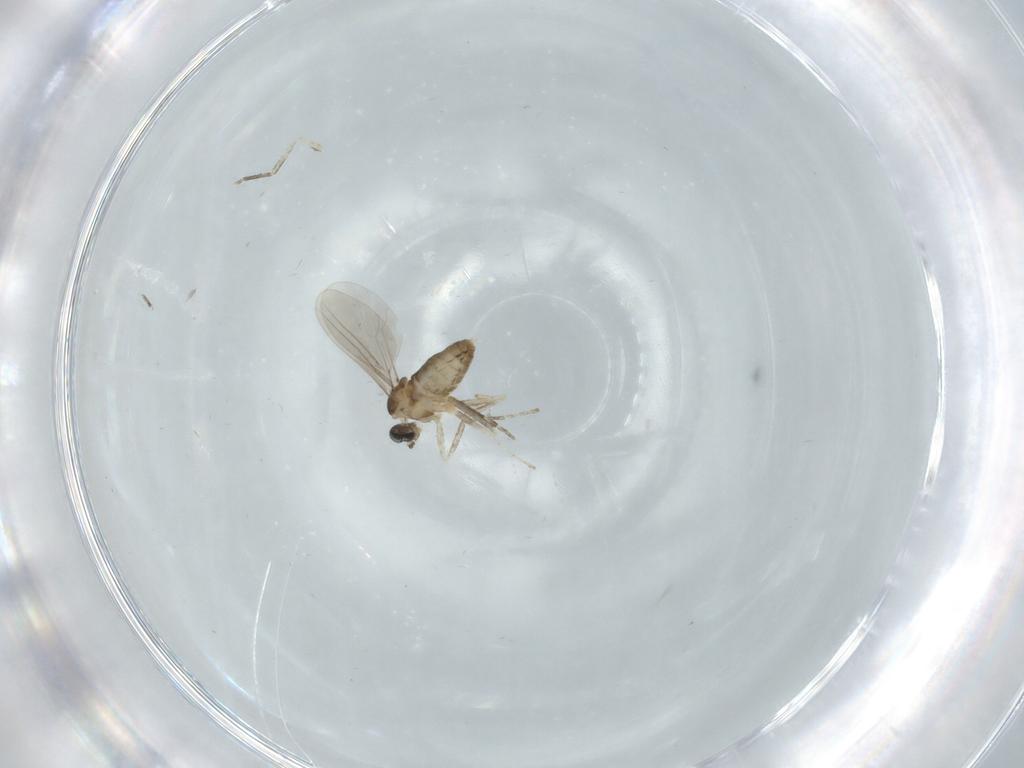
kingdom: Animalia
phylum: Arthropoda
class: Insecta
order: Diptera
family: Cecidomyiidae
